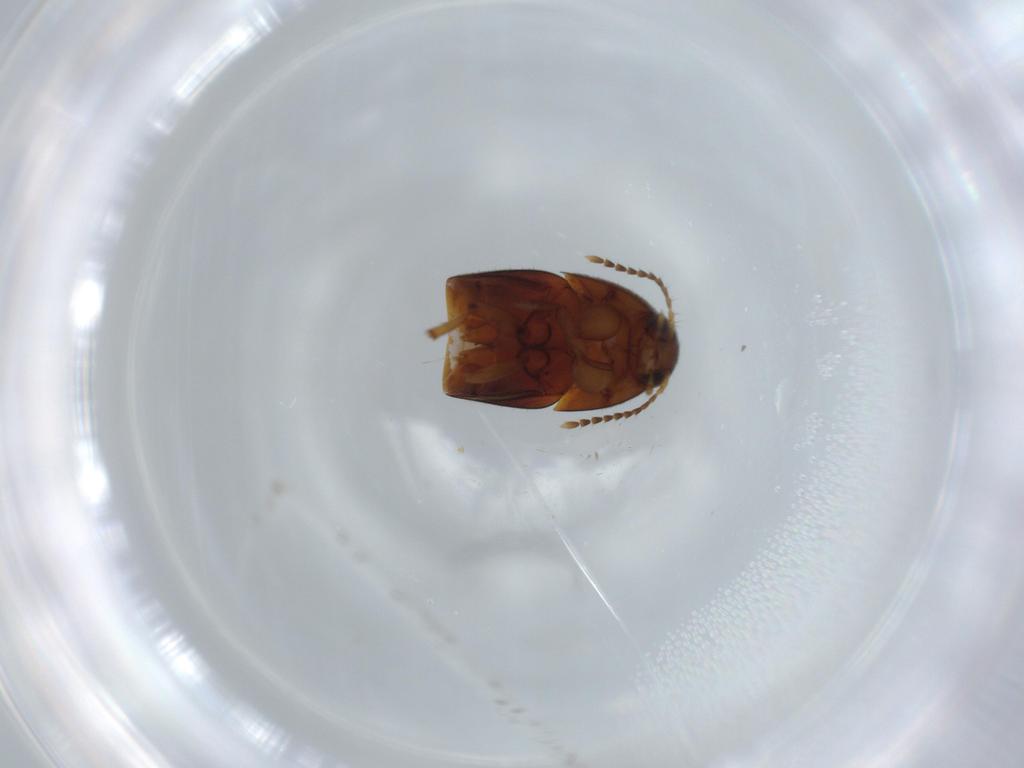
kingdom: Animalia
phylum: Arthropoda
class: Insecta
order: Coleoptera
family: Staphylinidae
